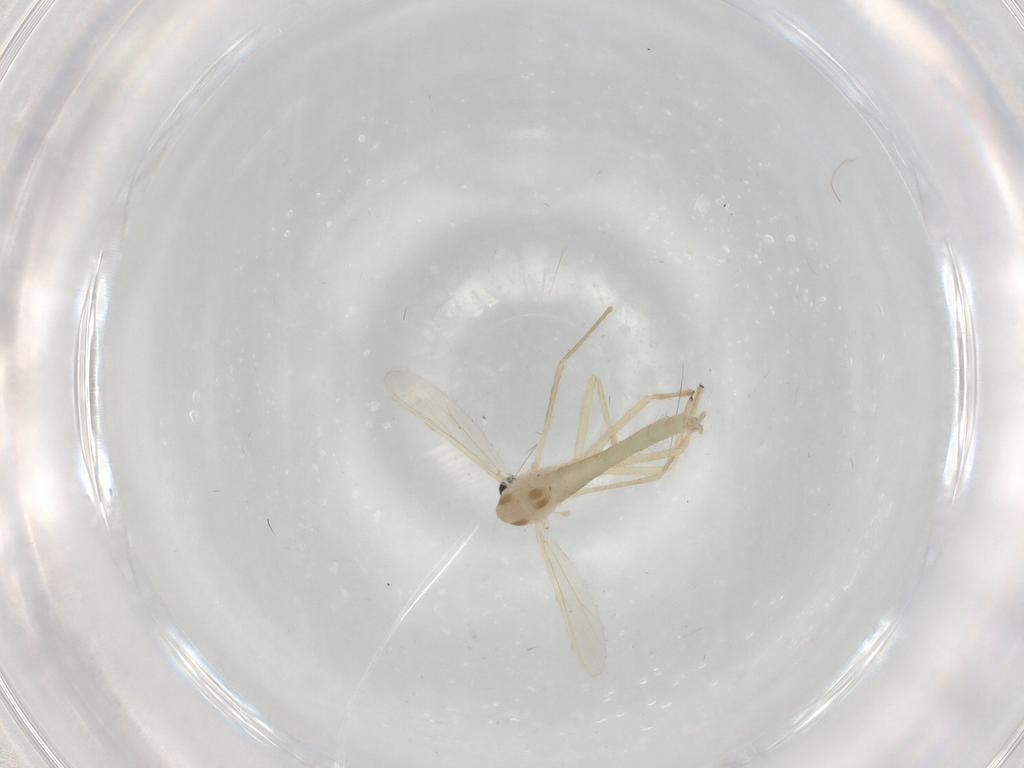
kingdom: Animalia
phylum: Arthropoda
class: Insecta
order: Diptera
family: Chironomidae
